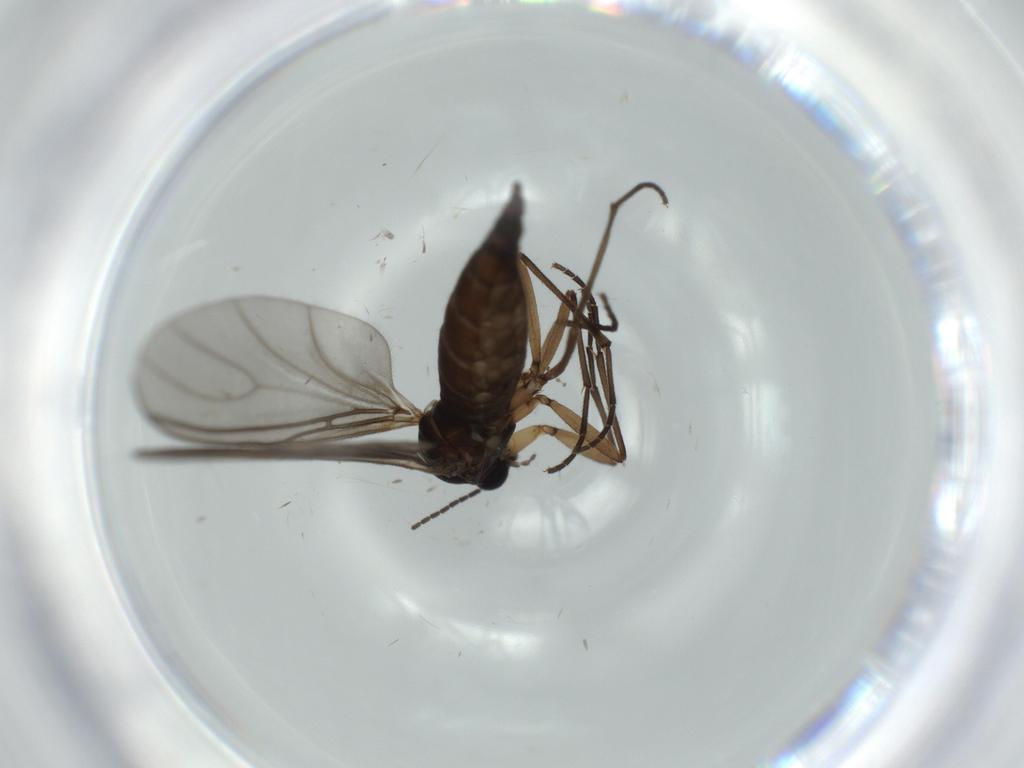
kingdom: Animalia
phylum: Arthropoda
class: Insecta
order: Diptera
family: Sciaridae
